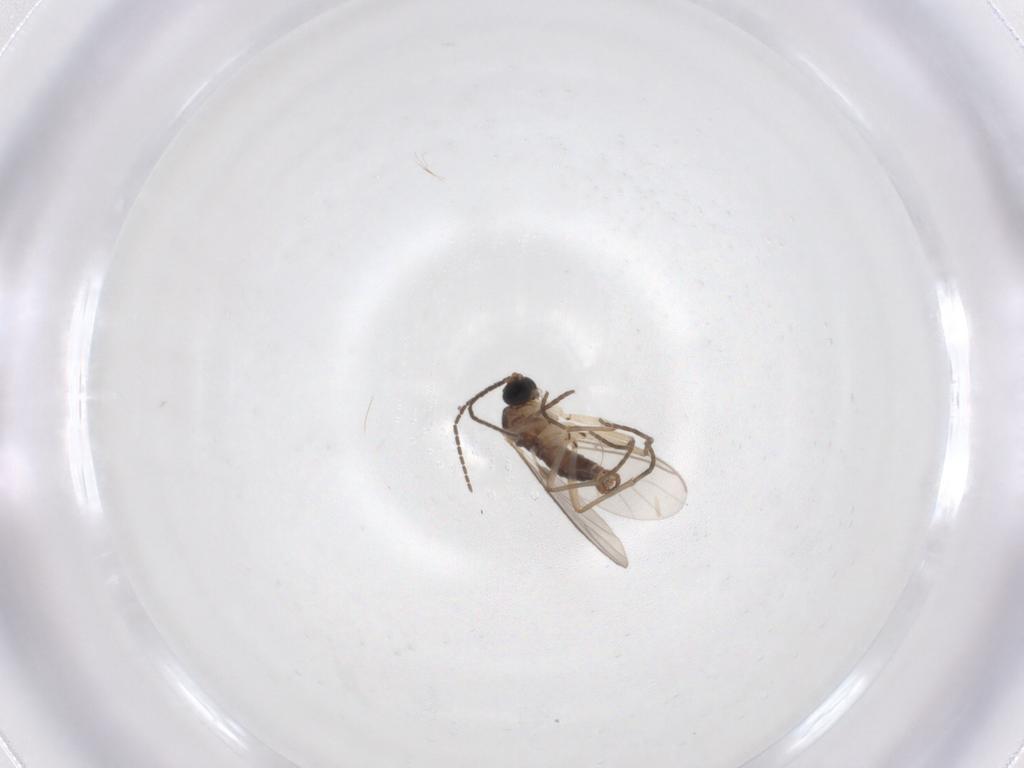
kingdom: Animalia
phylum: Arthropoda
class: Insecta
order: Diptera
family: Sciaridae
